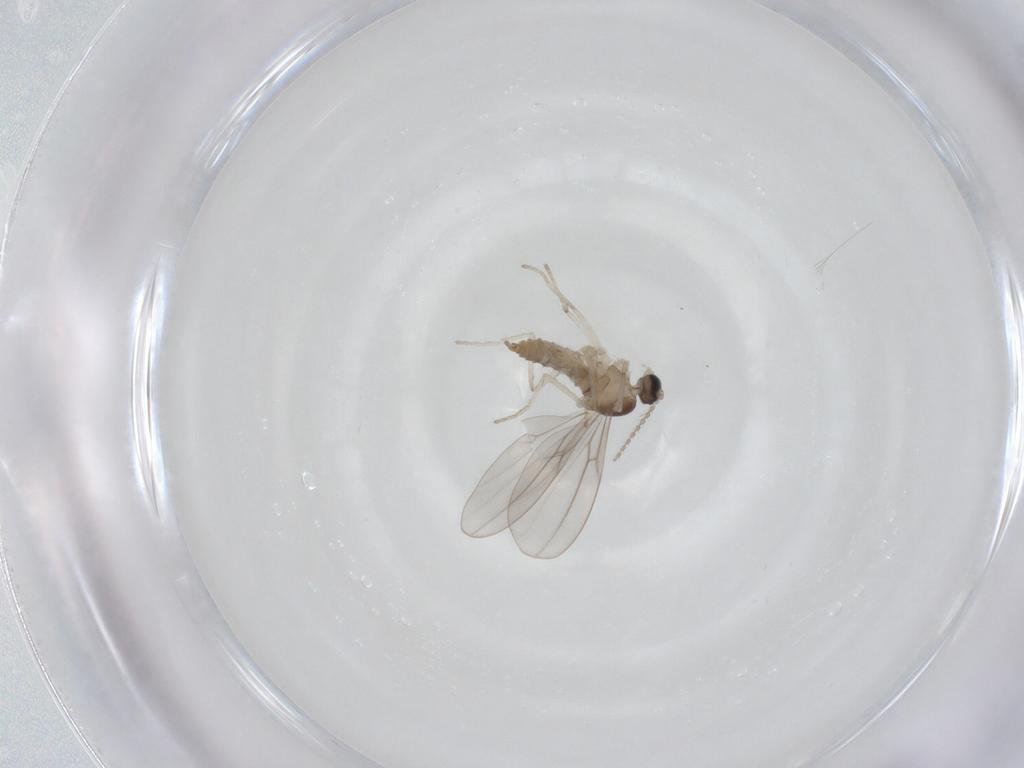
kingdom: Animalia
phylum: Arthropoda
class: Insecta
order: Diptera
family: Cecidomyiidae
